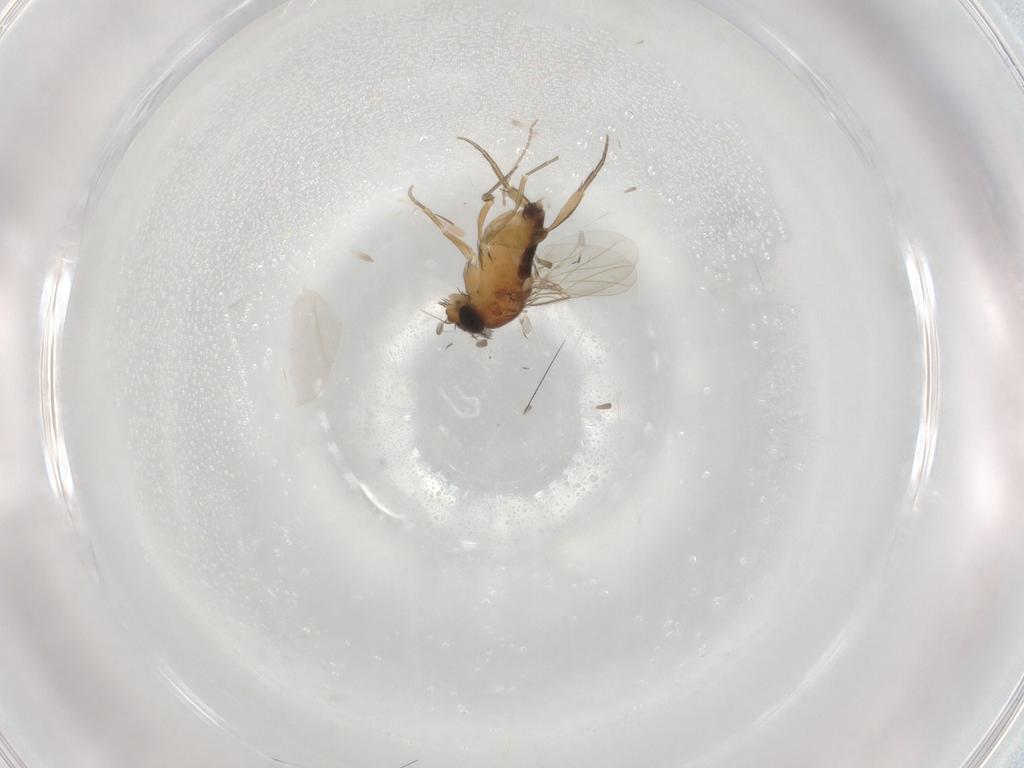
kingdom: Animalia
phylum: Arthropoda
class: Insecta
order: Diptera
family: Phoridae
